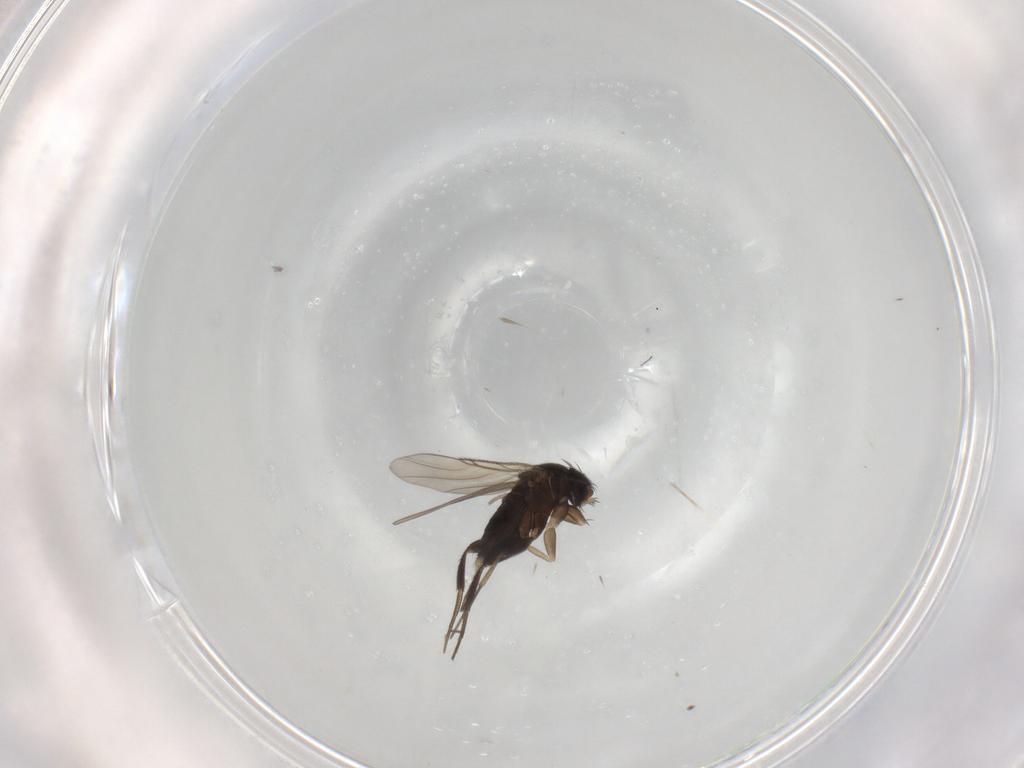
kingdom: Animalia
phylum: Arthropoda
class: Insecta
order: Diptera
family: Phoridae
